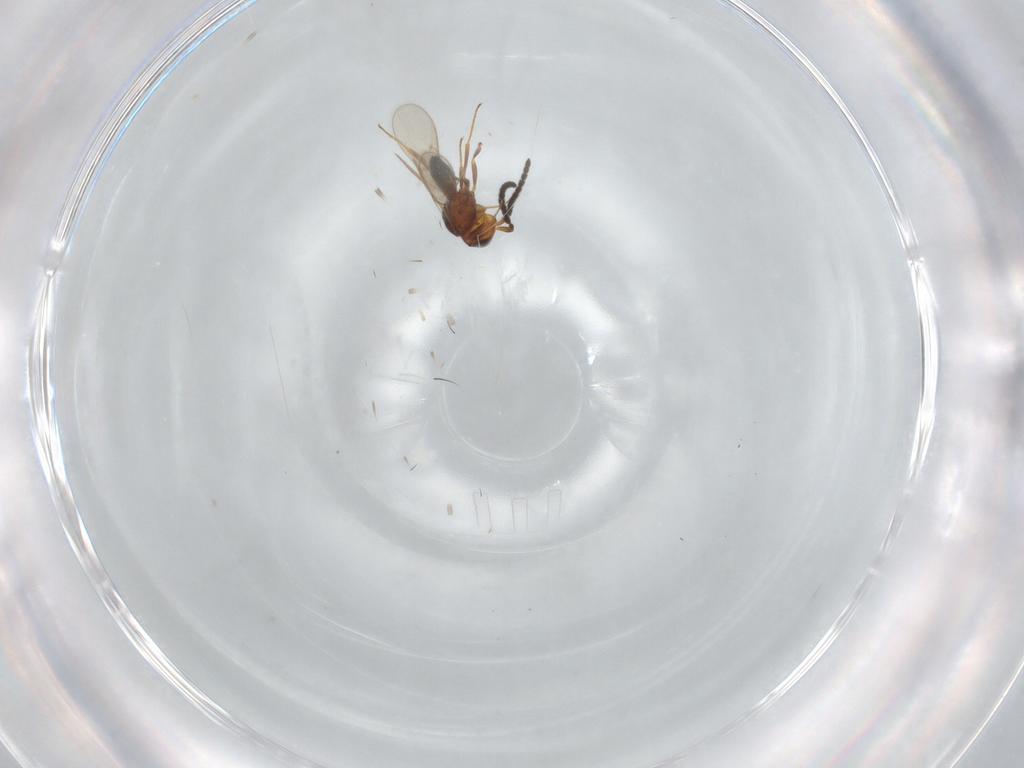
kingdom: Animalia
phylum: Arthropoda
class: Insecta
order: Hymenoptera
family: Scelionidae
